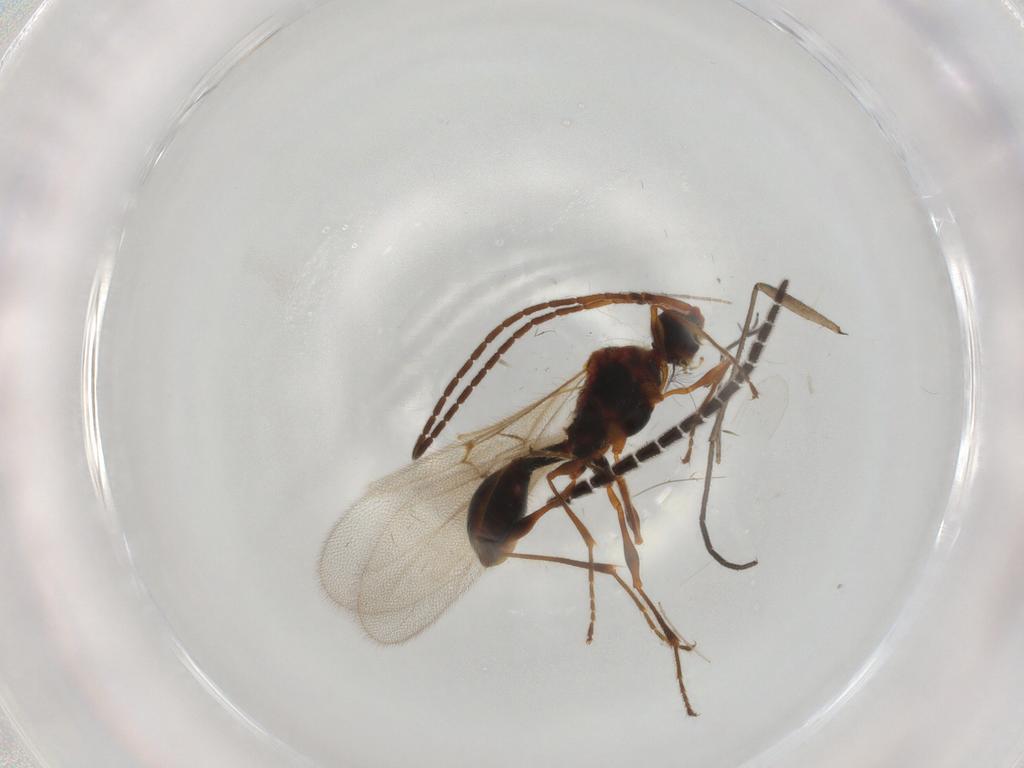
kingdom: Animalia
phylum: Arthropoda
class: Insecta
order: Hymenoptera
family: Diapriidae
